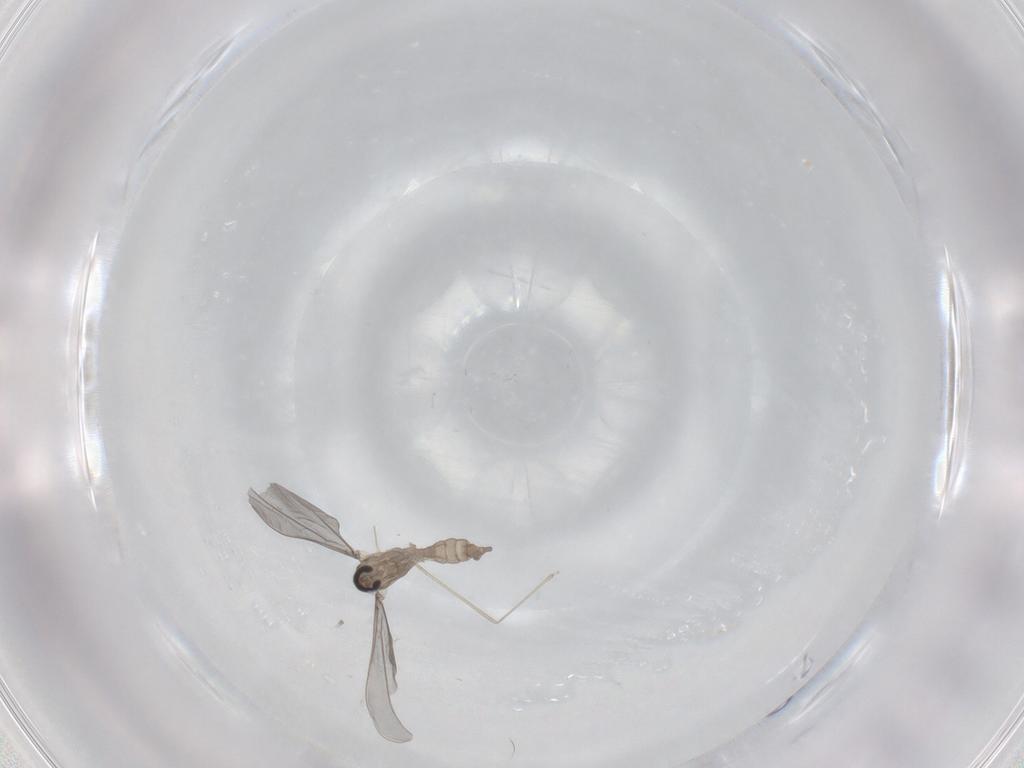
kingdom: Animalia
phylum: Arthropoda
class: Insecta
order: Diptera
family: Cecidomyiidae
